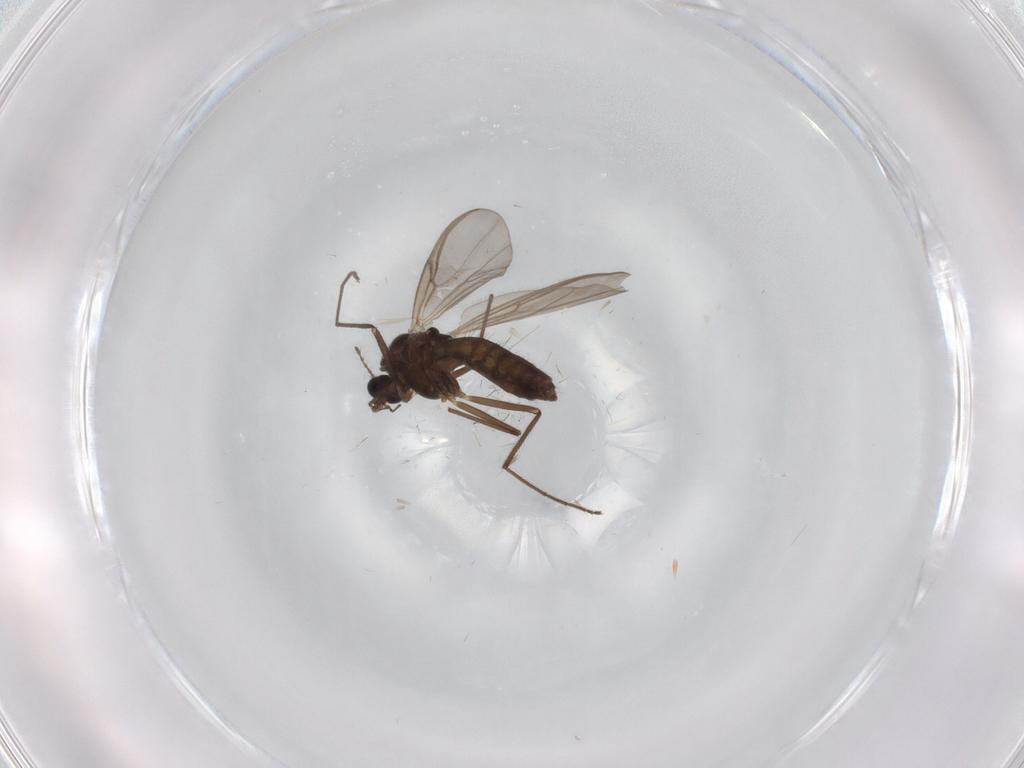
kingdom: Animalia
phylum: Arthropoda
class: Insecta
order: Diptera
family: Chironomidae
